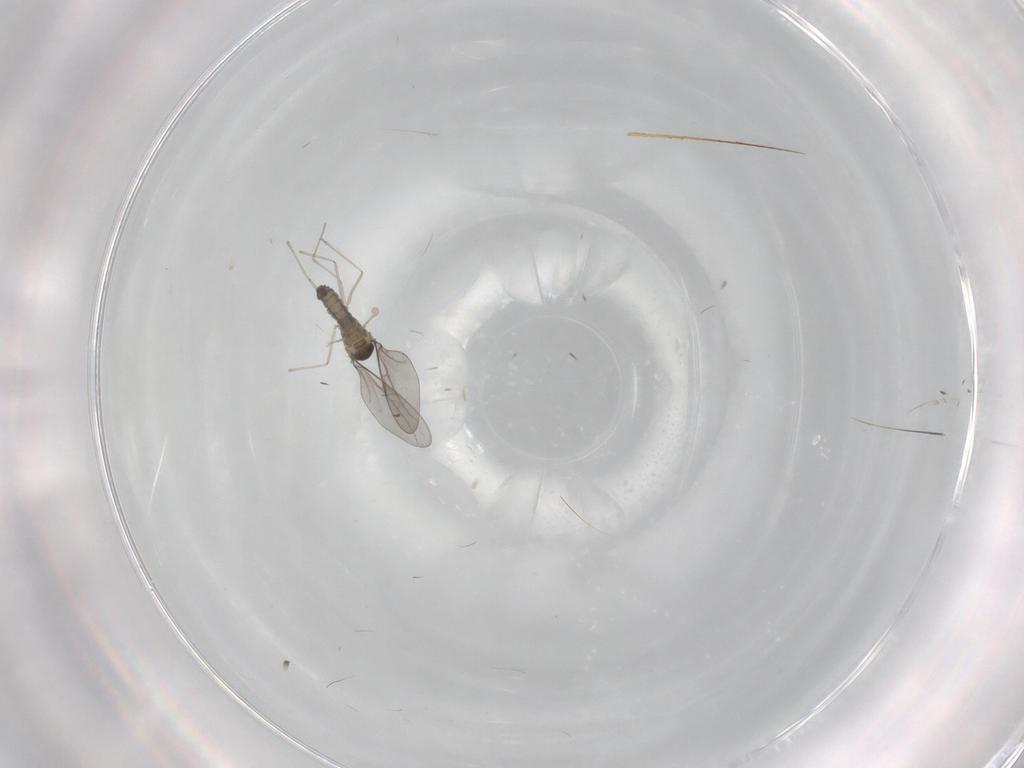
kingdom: Animalia
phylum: Arthropoda
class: Insecta
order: Diptera
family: Cecidomyiidae
